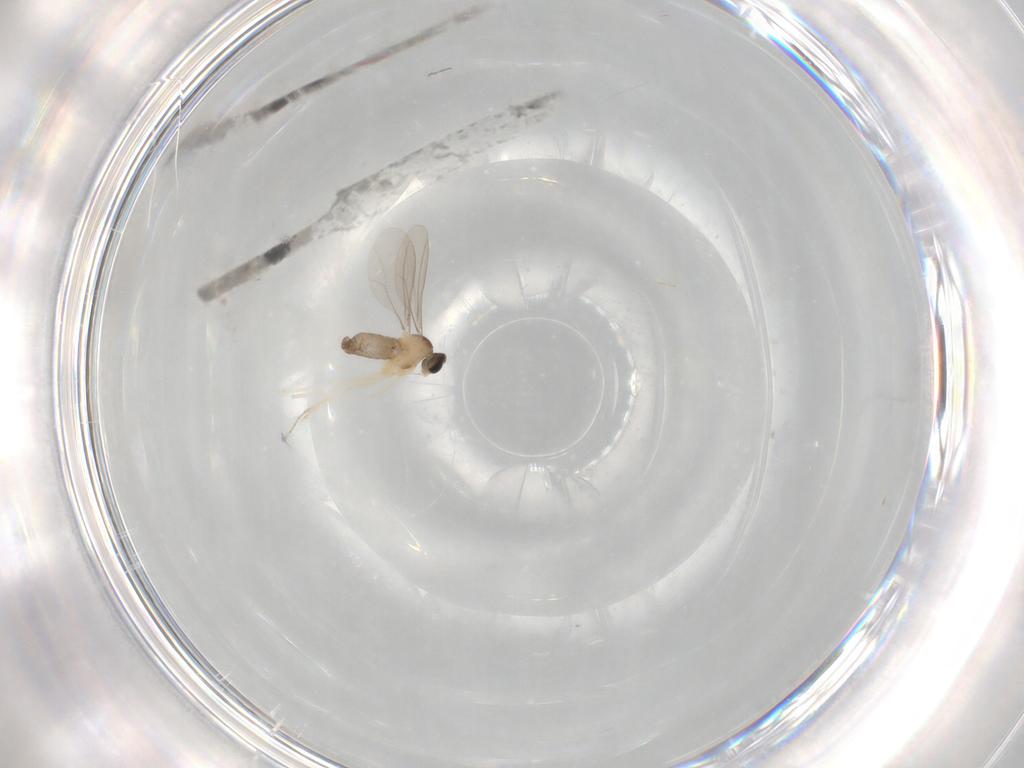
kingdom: Animalia
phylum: Arthropoda
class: Insecta
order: Diptera
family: Cecidomyiidae
